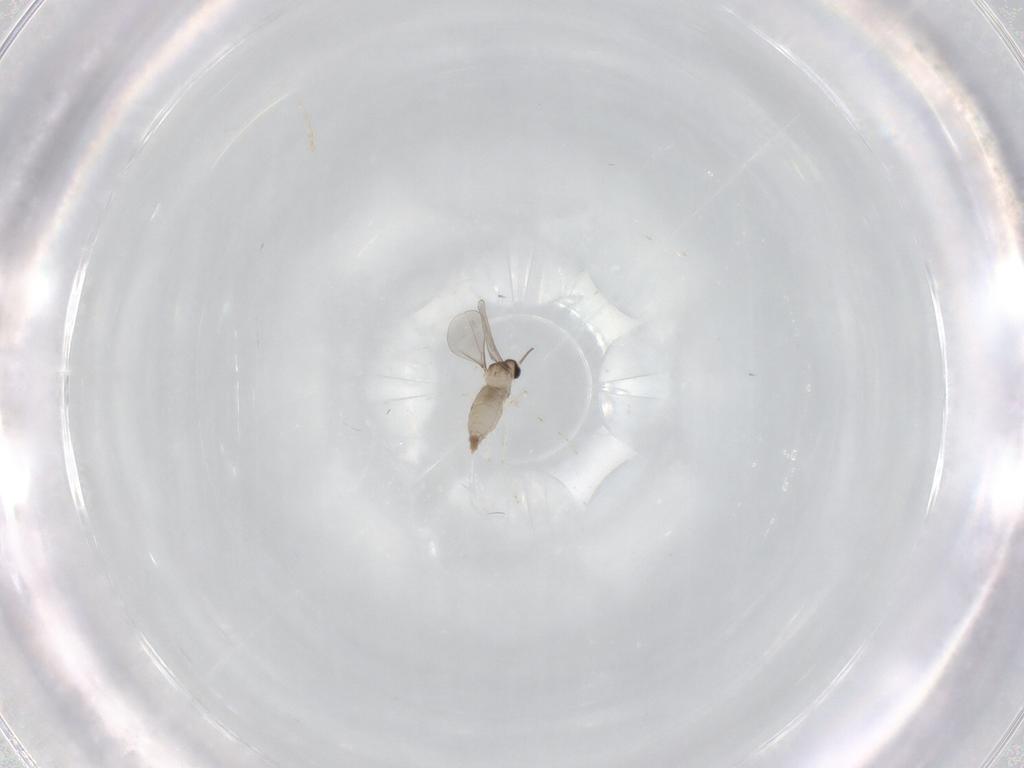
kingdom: Animalia
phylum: Arthropoda
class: Insecta
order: Diptera
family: Cecidomyiidae
